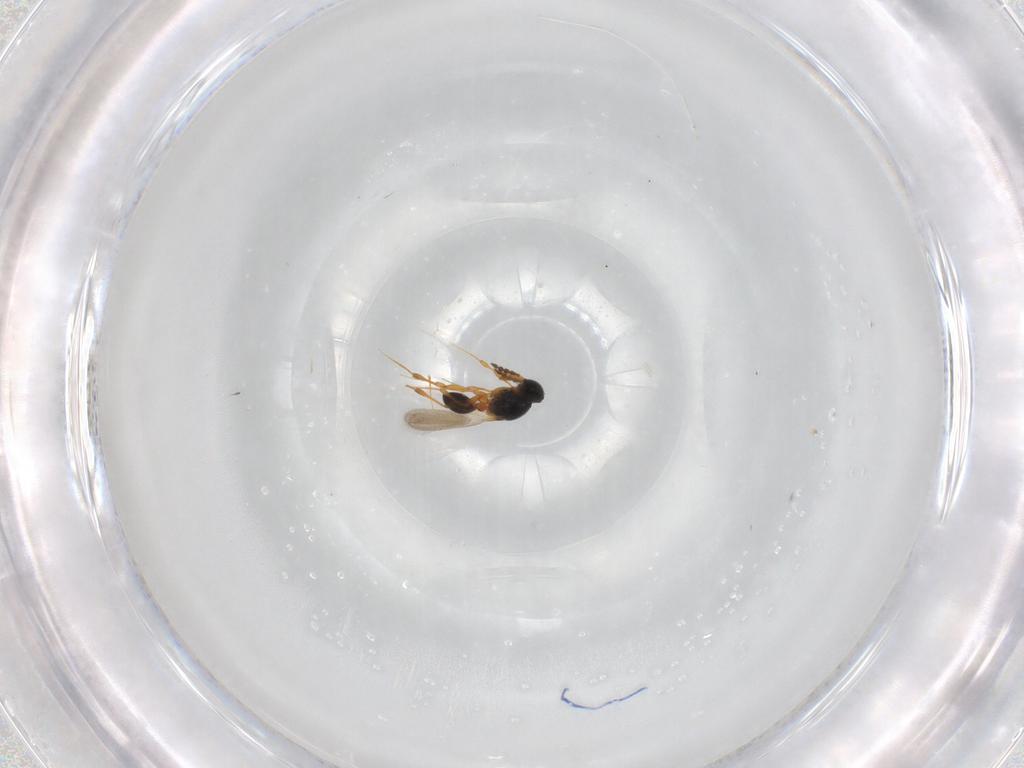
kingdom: Animalia
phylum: Arthropoda
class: Insecta
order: Hymenoptera
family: Platygastridae
